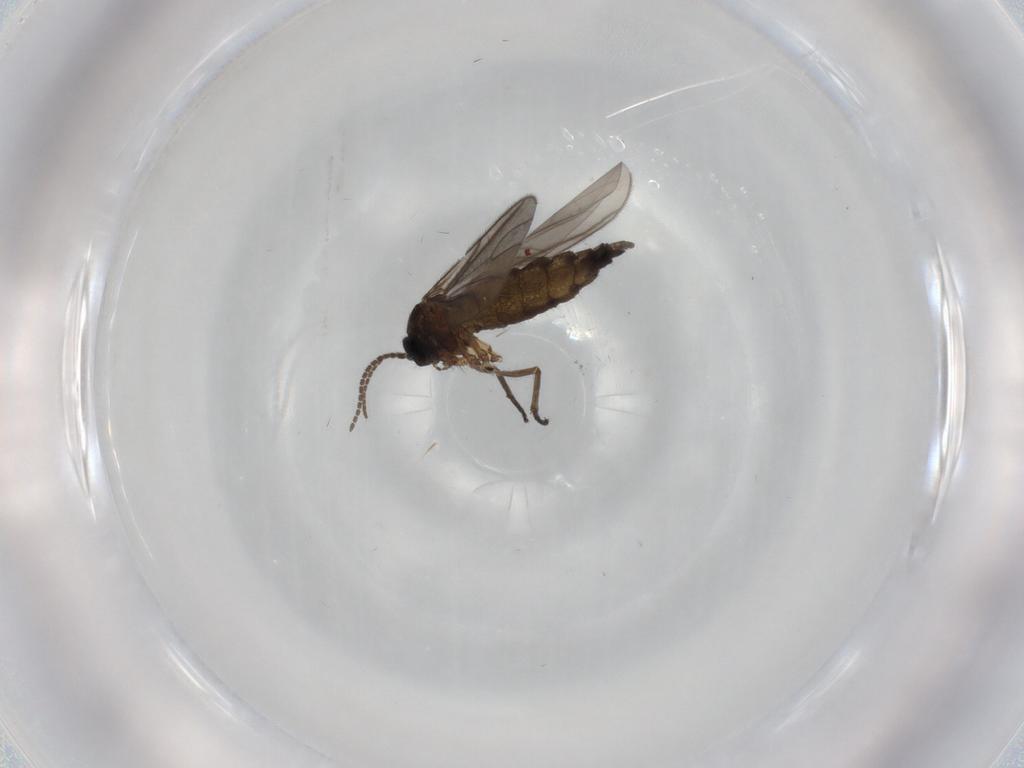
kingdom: Animalia
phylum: Arthropoda
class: Insecta
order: Diptera
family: Sciaridae
